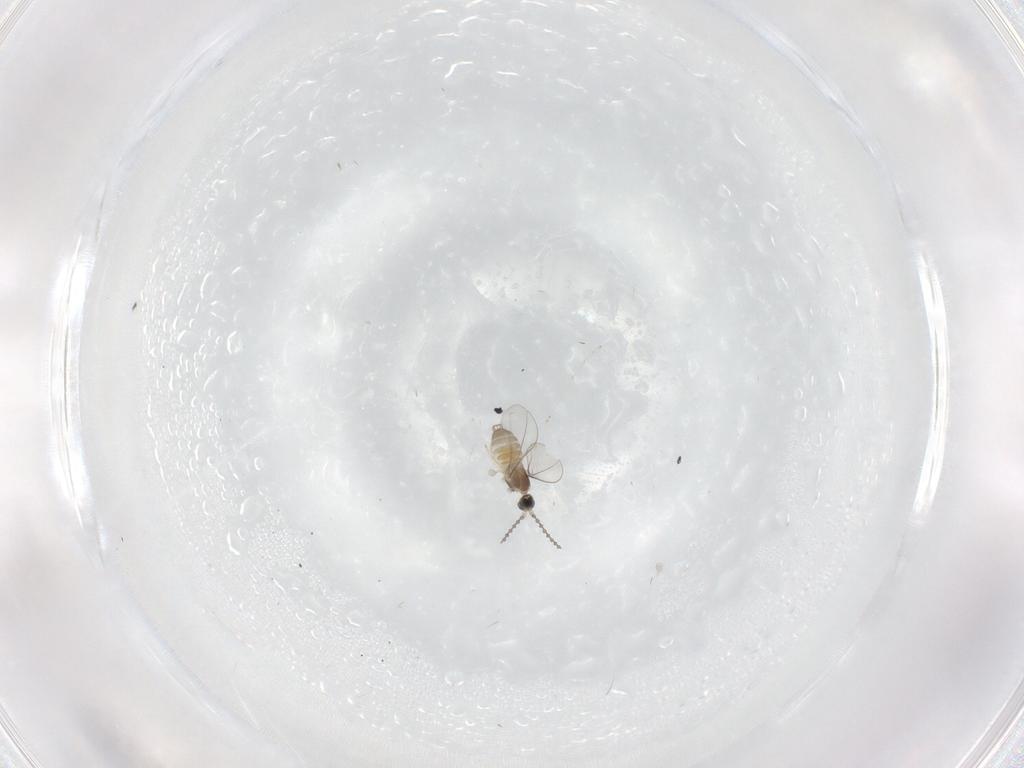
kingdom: Animalia
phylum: Arthropoda
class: Insecta
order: Diptera
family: Cecidomyiidae
